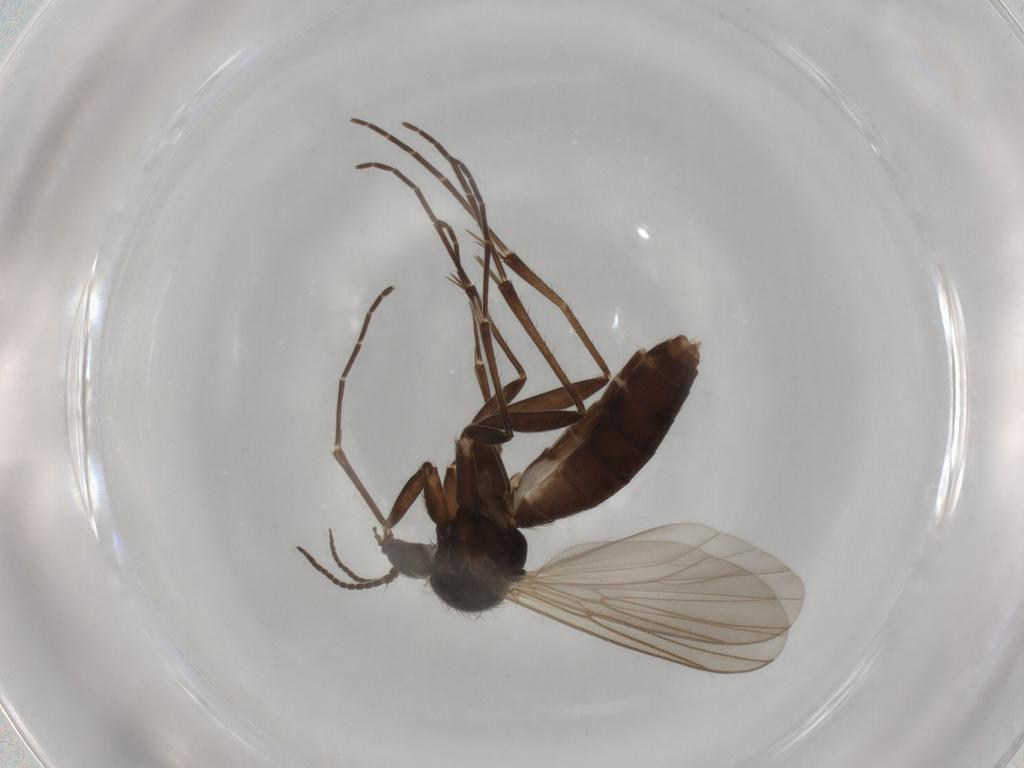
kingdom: Animalia
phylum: Arthropoda
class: Insecta
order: Diptera
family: Mycetophilidae
